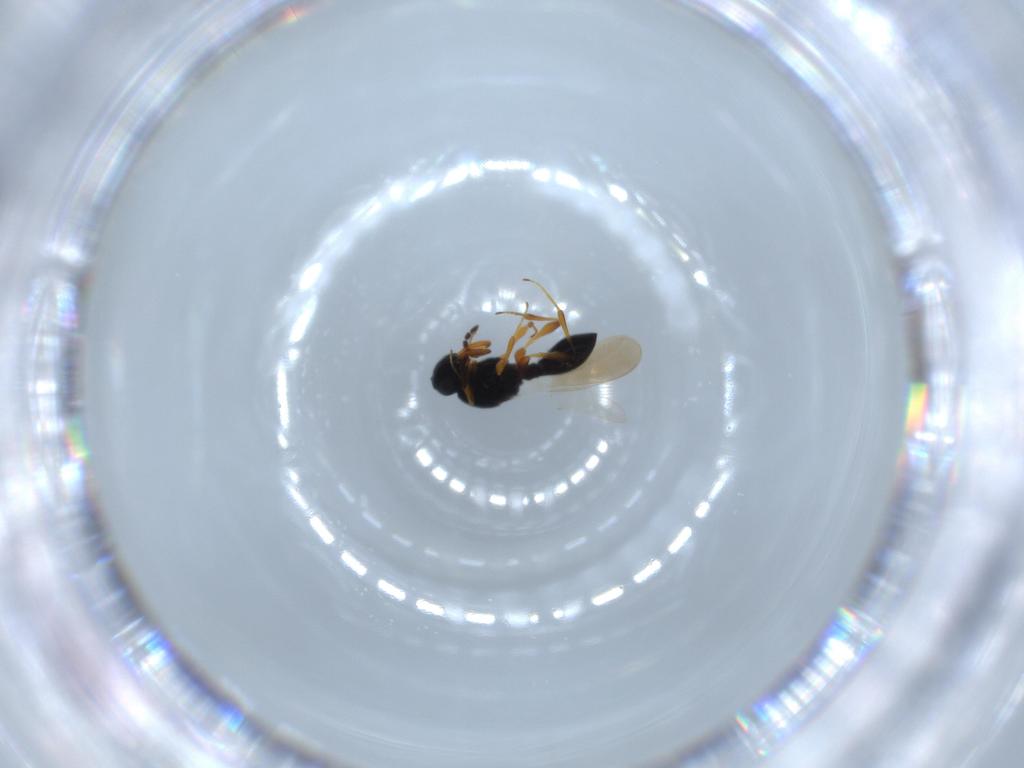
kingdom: Animalia
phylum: Arthropoda
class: Insecta
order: Hymenoptera
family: Platygastridae
